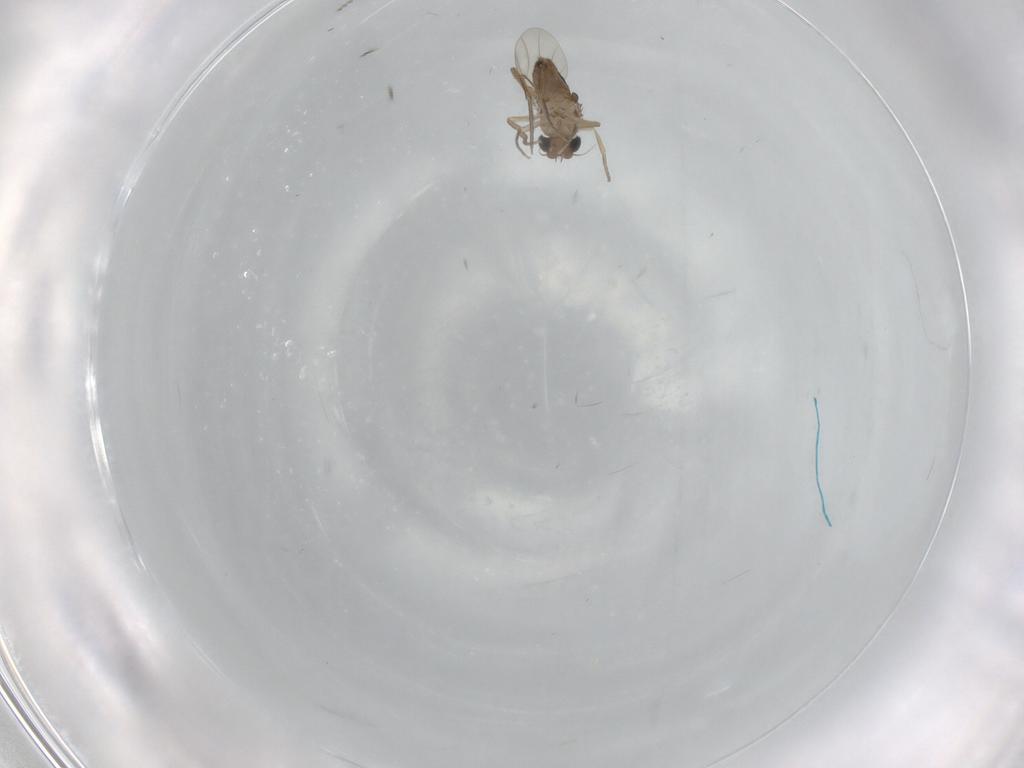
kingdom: Animalia
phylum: Arthropoda
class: Insecta
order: Diptera
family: Phoridae
